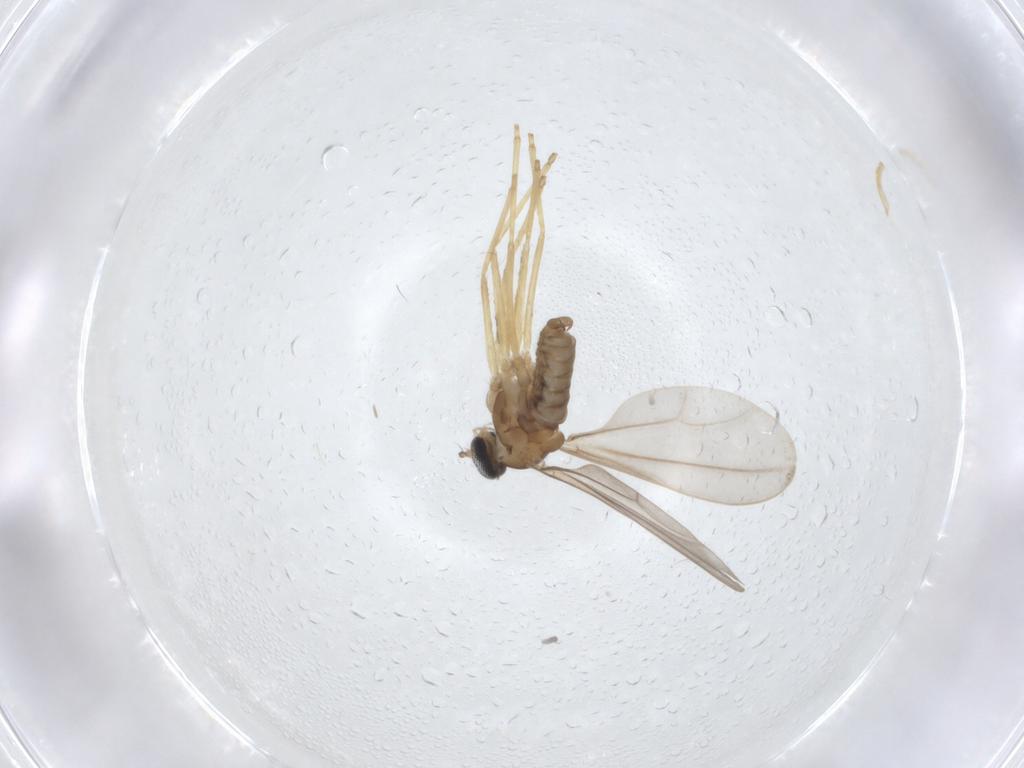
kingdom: Animalia
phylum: Arthropoda
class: Insecta
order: Diptera
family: Cecidomyiidae
